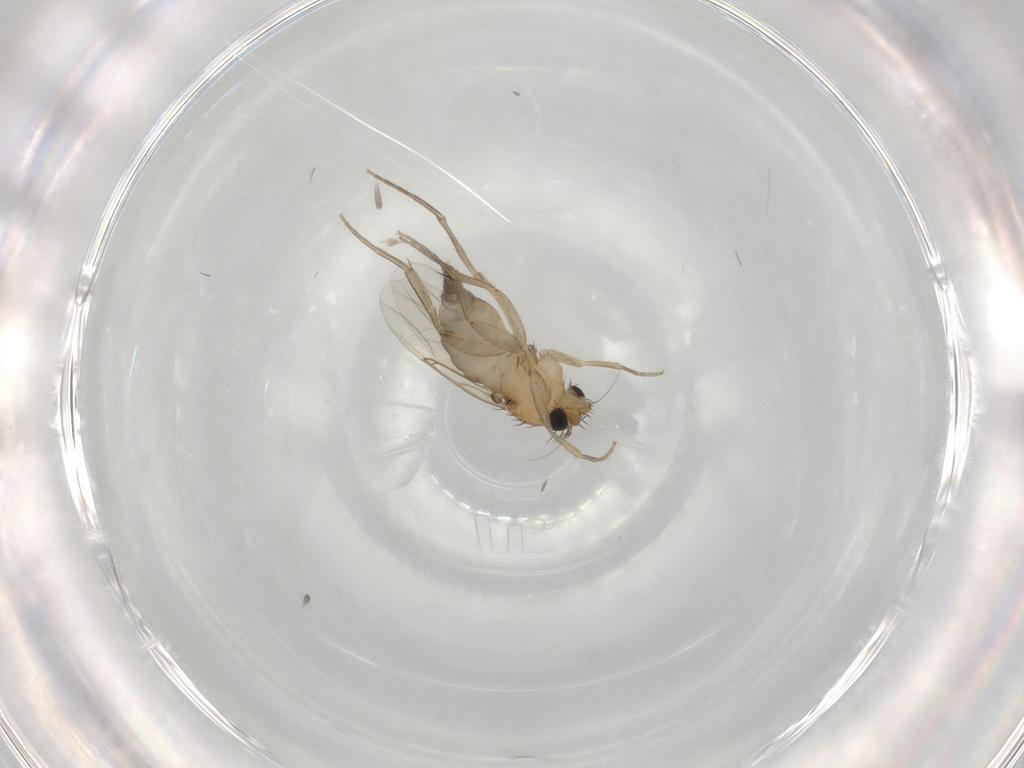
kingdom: Animalia
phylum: Arthropoda
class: Insecta
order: Diptera
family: Phoridae
